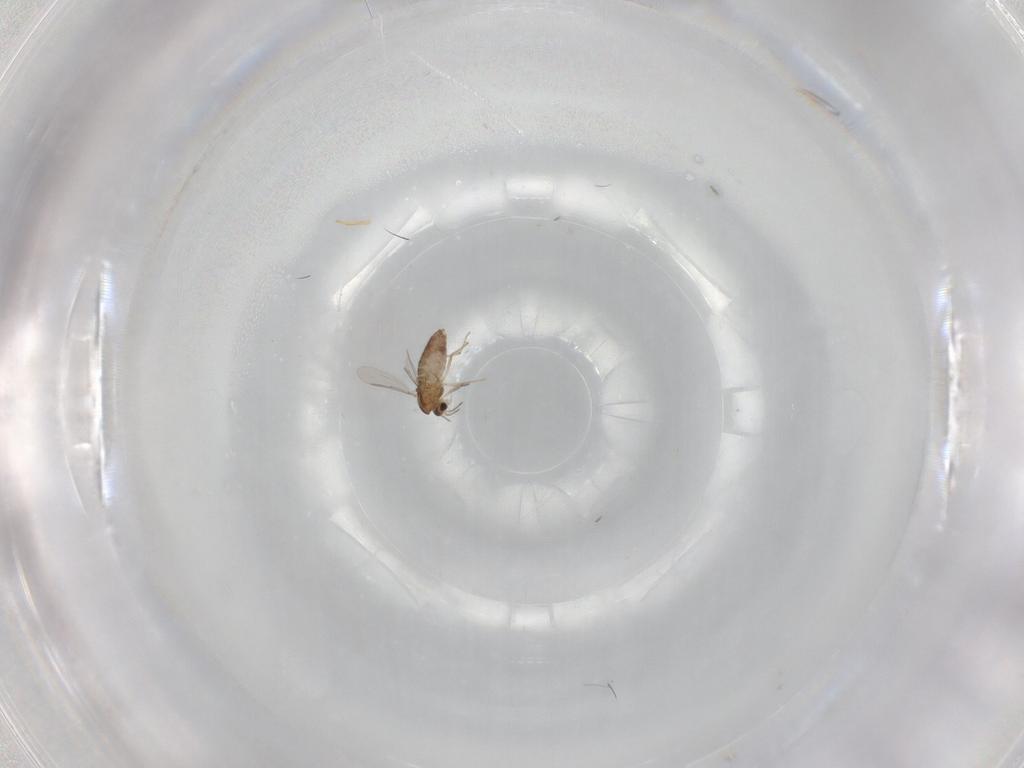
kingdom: Animalia
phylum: Arthropoda
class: Insecta
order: Diptera
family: Chironomidae
